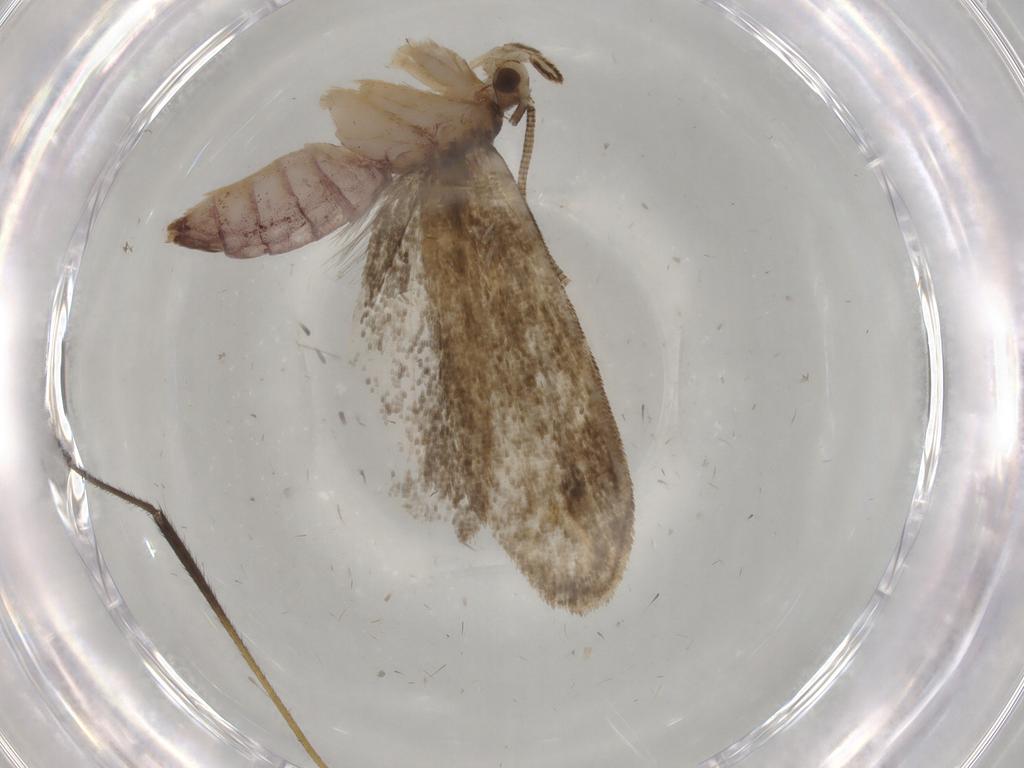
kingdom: Animalia
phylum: Arthropoda
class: Insecta
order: Lepidoptera
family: Dryadaulidae
